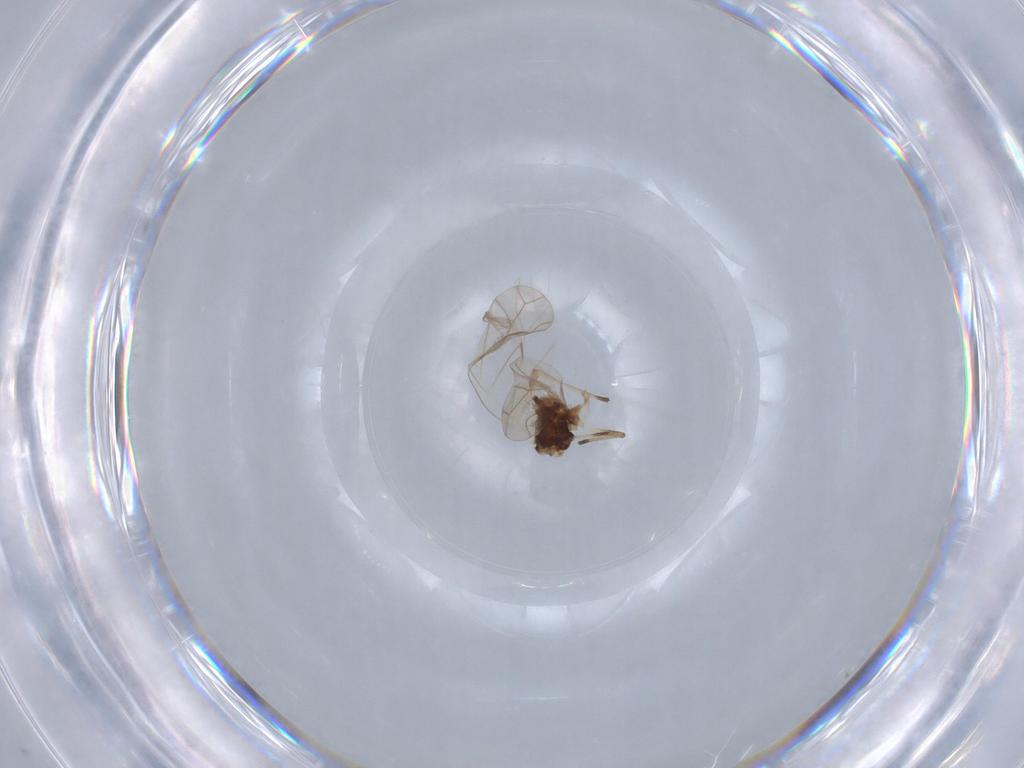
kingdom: Animalia
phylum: Arthropoda
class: Insecta
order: Hemiptera
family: Aphididae
